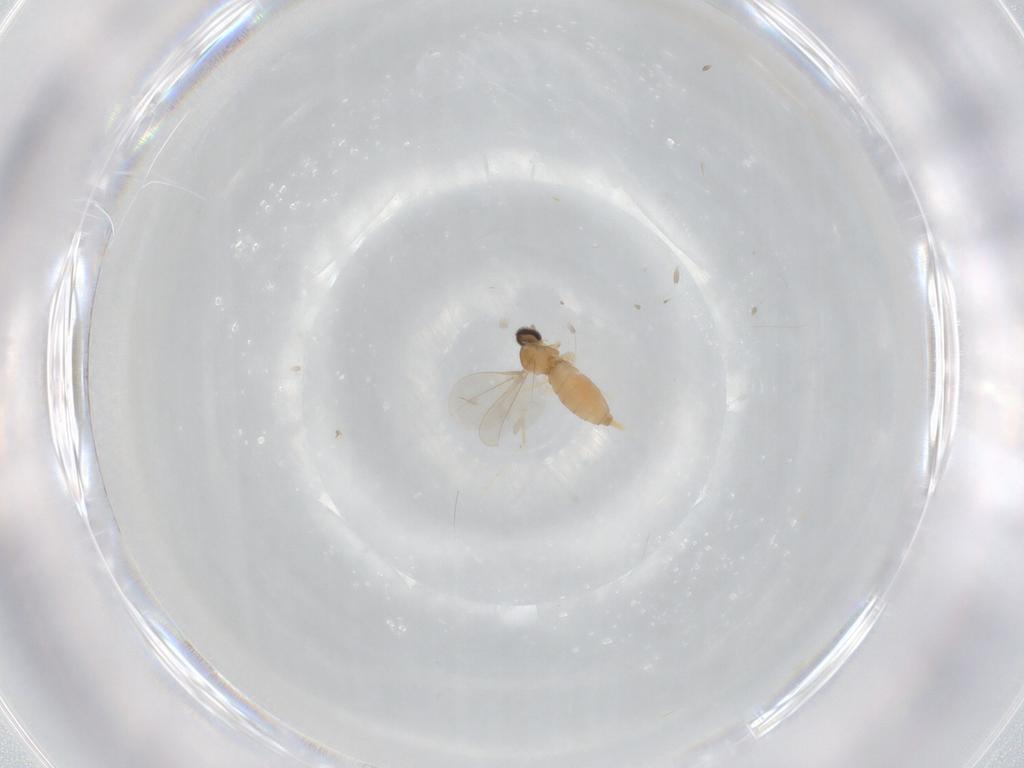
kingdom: Animalia
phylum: Arthropoda
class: Insecta
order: Diptera
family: Cecidomyiidae
